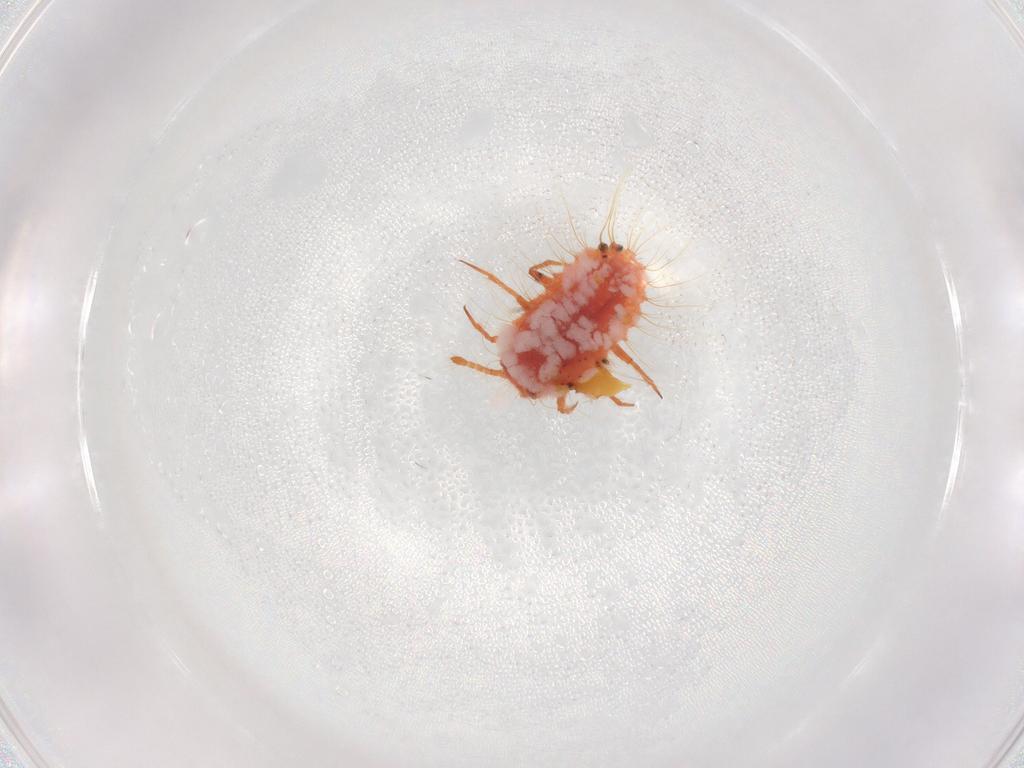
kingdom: Animalia
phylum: Arthropoda
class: Insecta
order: Hemiptera
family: Coccoidea_incertae_sedis
